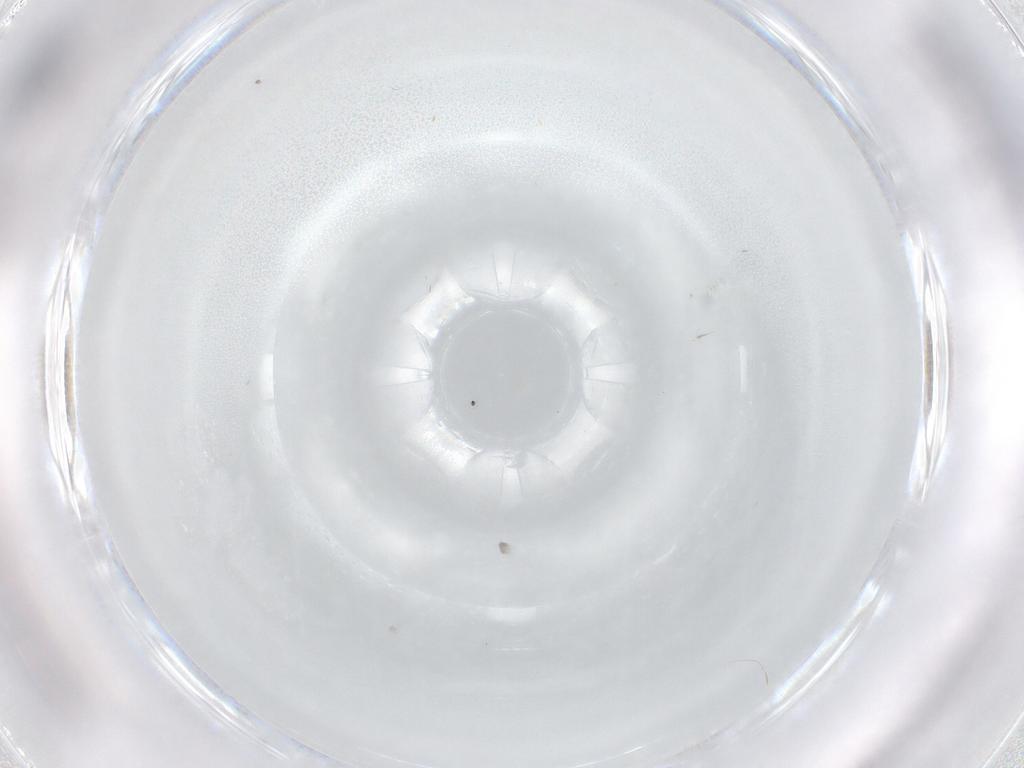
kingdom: Animalia
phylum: Arthropoda
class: Insecta
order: Diptera
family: Psychodidae
